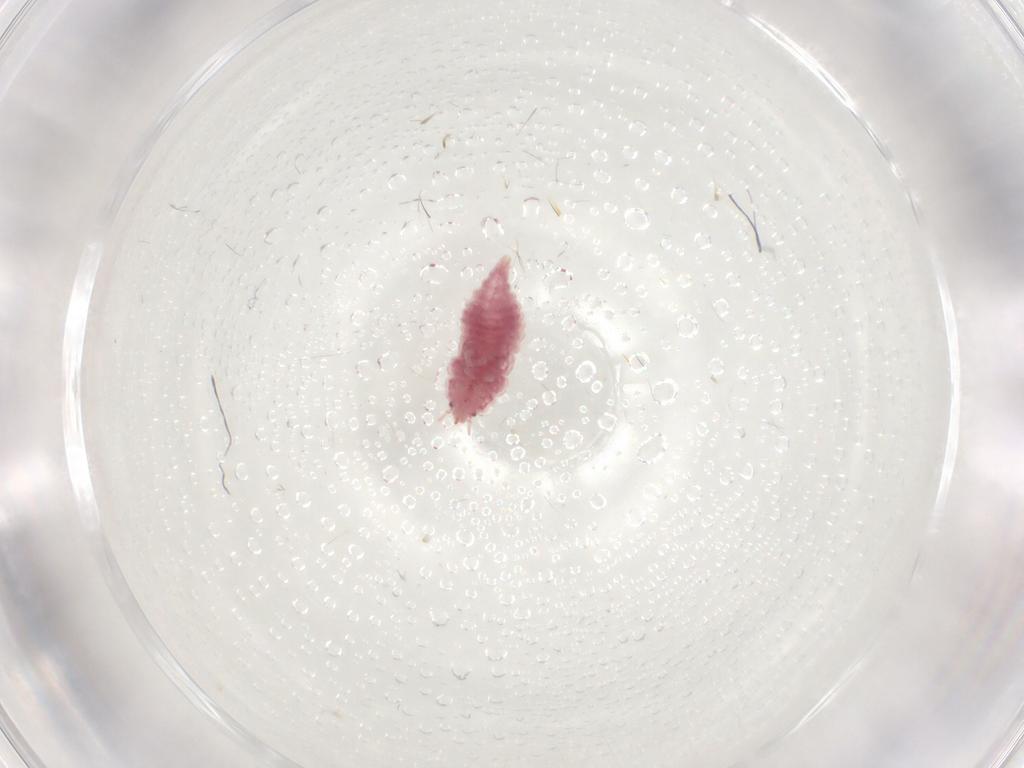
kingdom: Animalia
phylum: Arthropoda
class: Insecta
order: Neuroptera
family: Coniopterygidae
